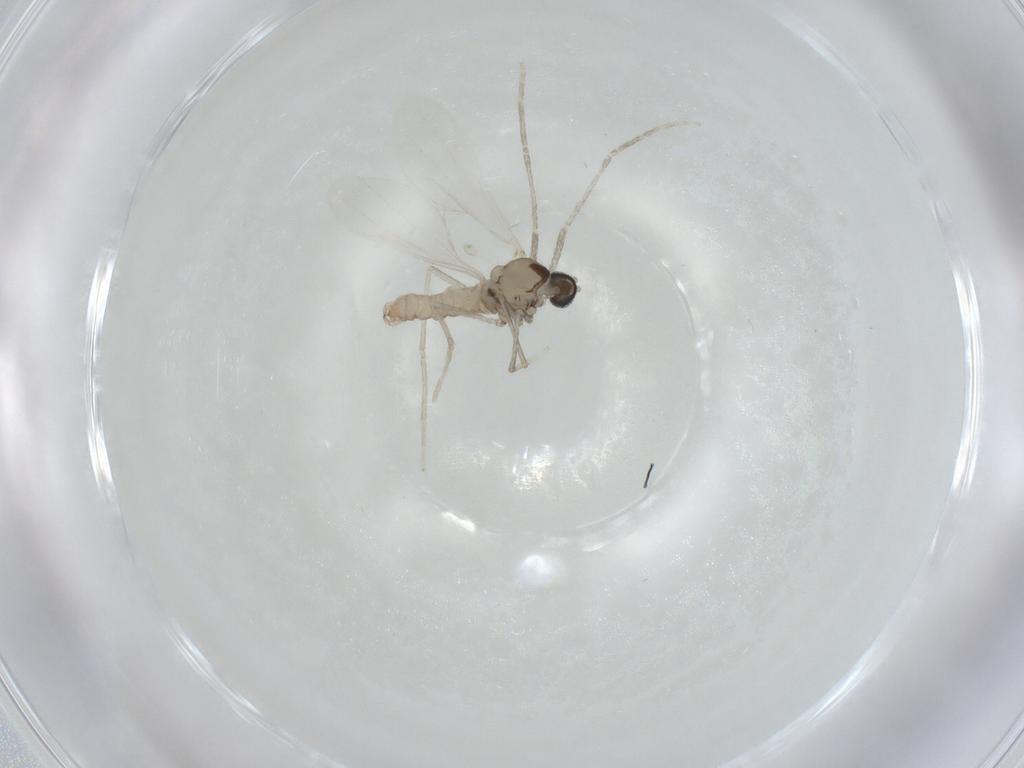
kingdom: Animalia
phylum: Arthropoda
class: Insecta
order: Diptera
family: Cecidomyiidae
